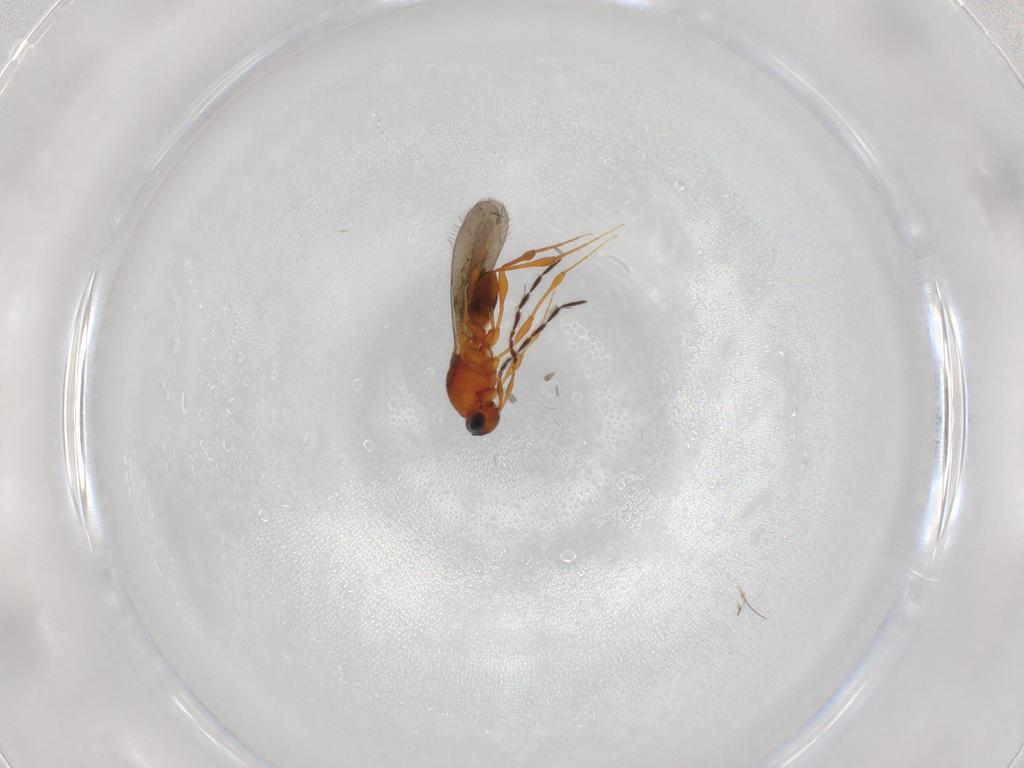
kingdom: Animalia
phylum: Arthropoda
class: Insecta
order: Hymenoptera
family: Platygastridae
